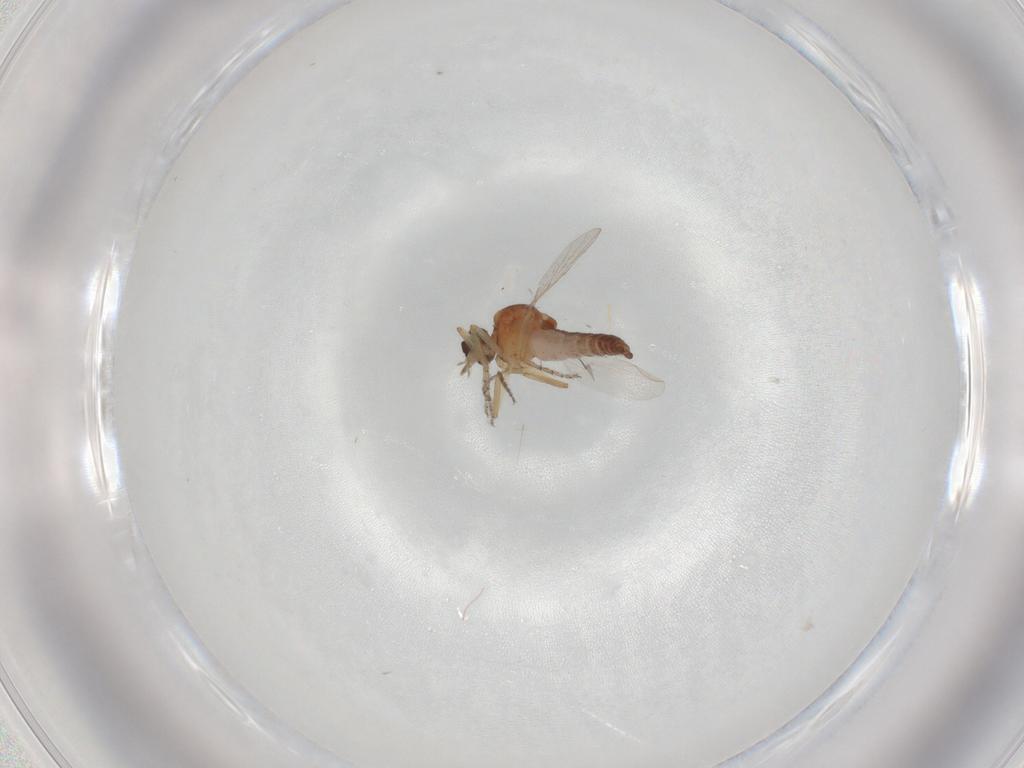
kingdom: Animalia
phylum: Arthropoda
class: Insecta
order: Diptera
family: Ceratopogonidae
